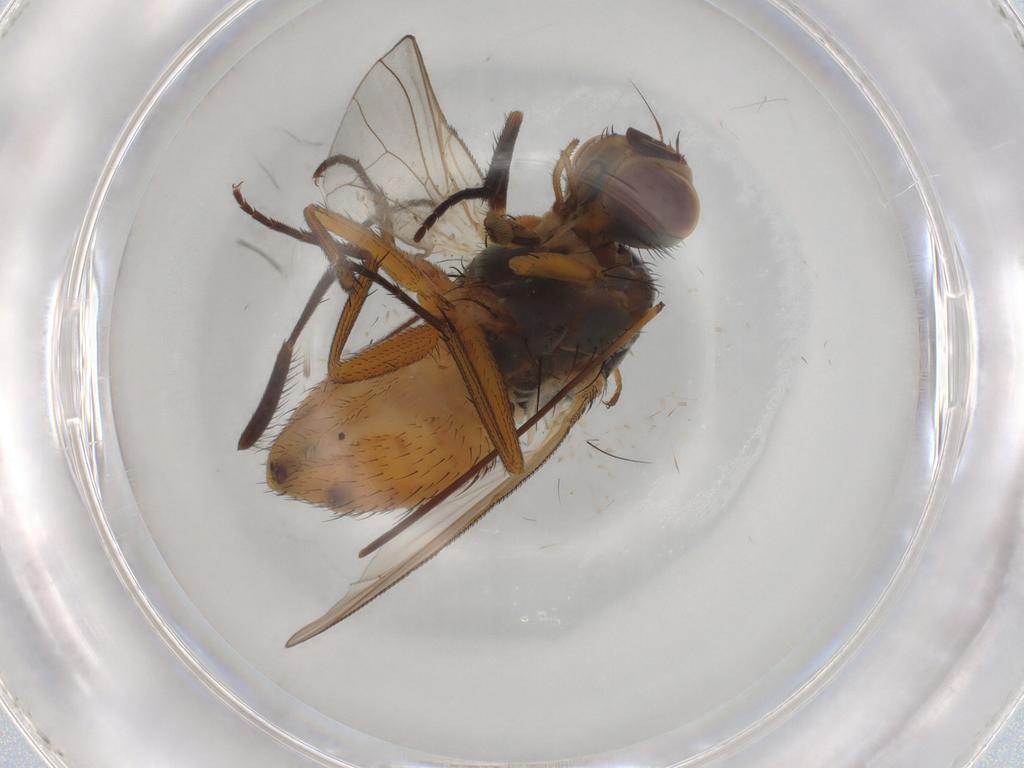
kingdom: Animalia
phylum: Arthropoda
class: Insecta
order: Diptera
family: Muscidae
